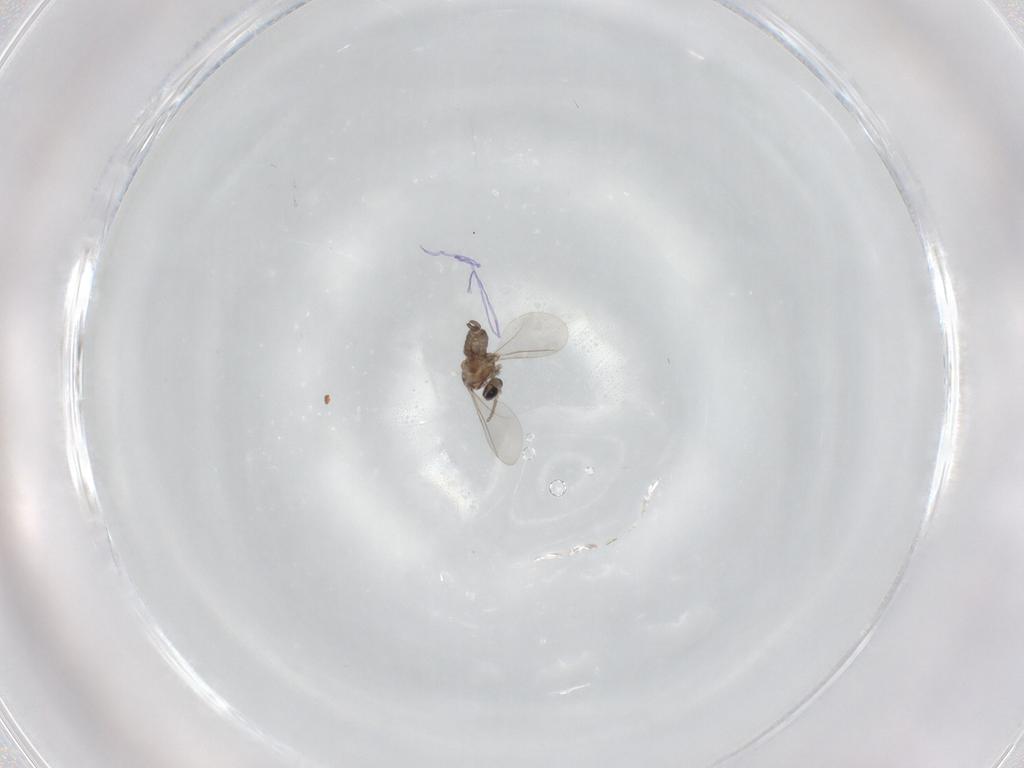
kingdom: Animalia
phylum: Arthropoda
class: Insecta
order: Diptera
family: Cecidomyiidae
